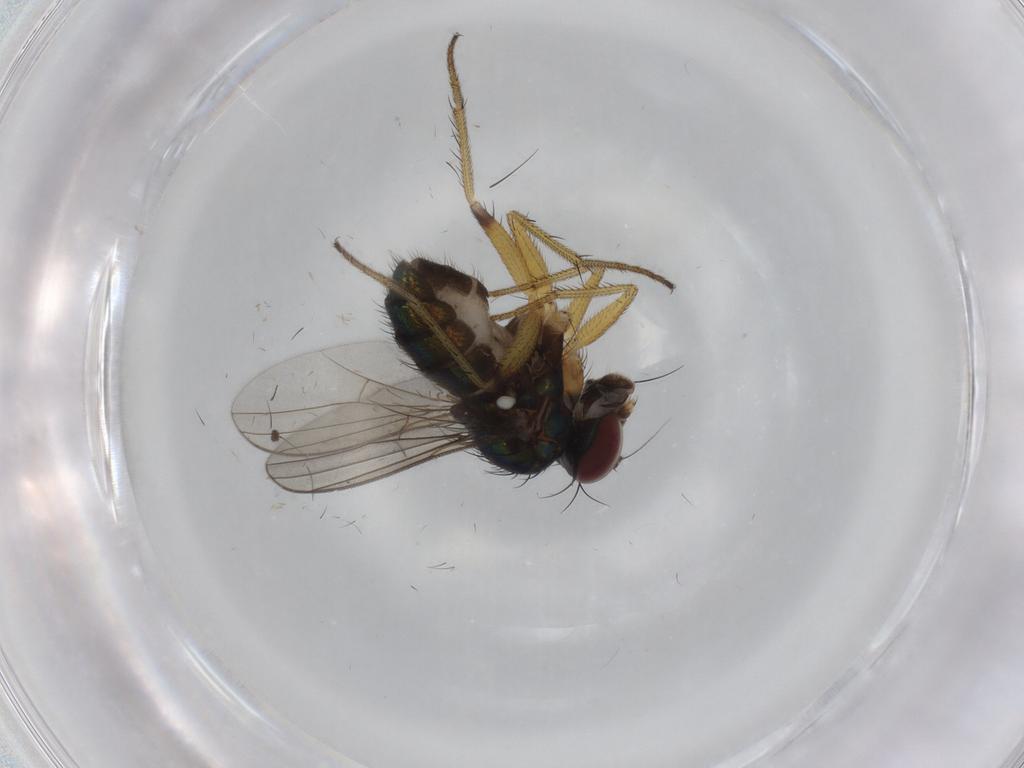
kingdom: Animalia
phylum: Arthropoda
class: Insecta
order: Diptera
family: Dolichopodidae
